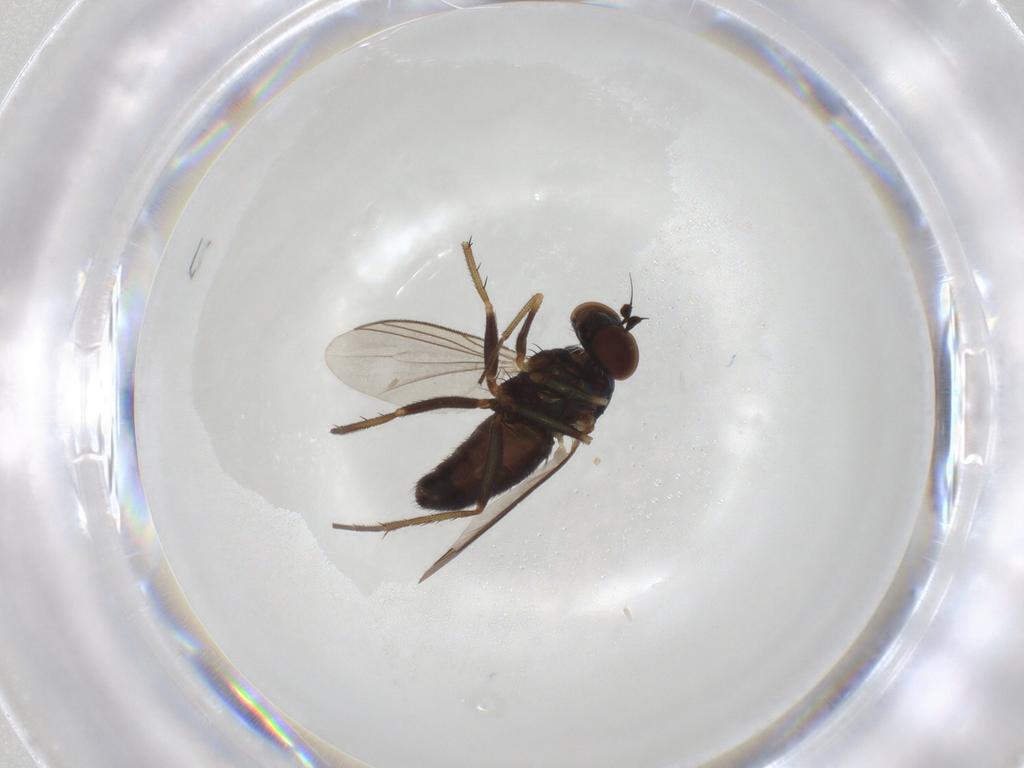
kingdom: Animalia
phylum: Arthropoda
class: Insecta
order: Diptera
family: Dolichopodidae
